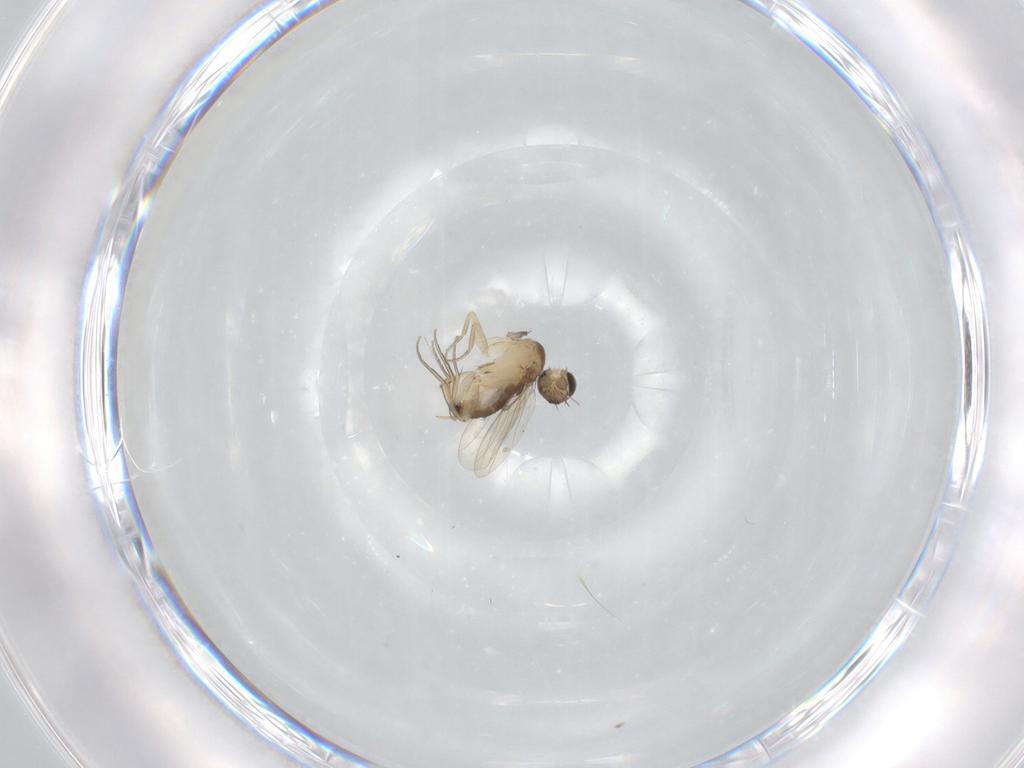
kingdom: Animalia
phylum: Arthropoda
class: Insecta
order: Diptera
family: Phoridae
